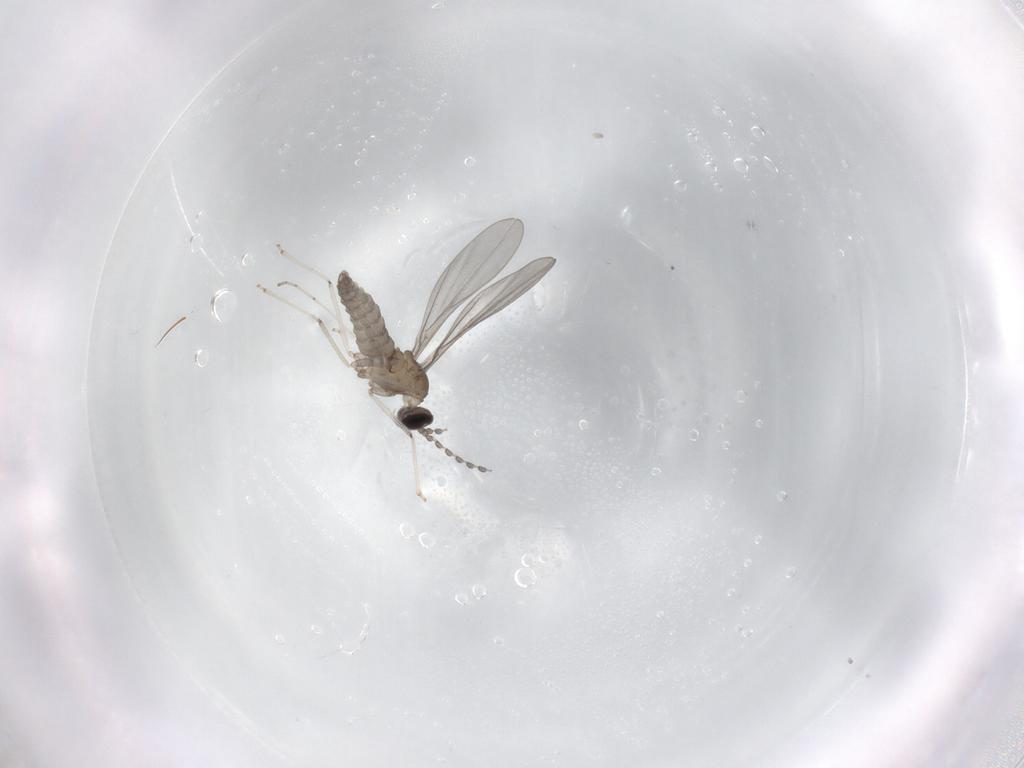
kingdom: Animalia
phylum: Arthropoda
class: Insecta
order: Diptera
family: Cecidomyiidae
